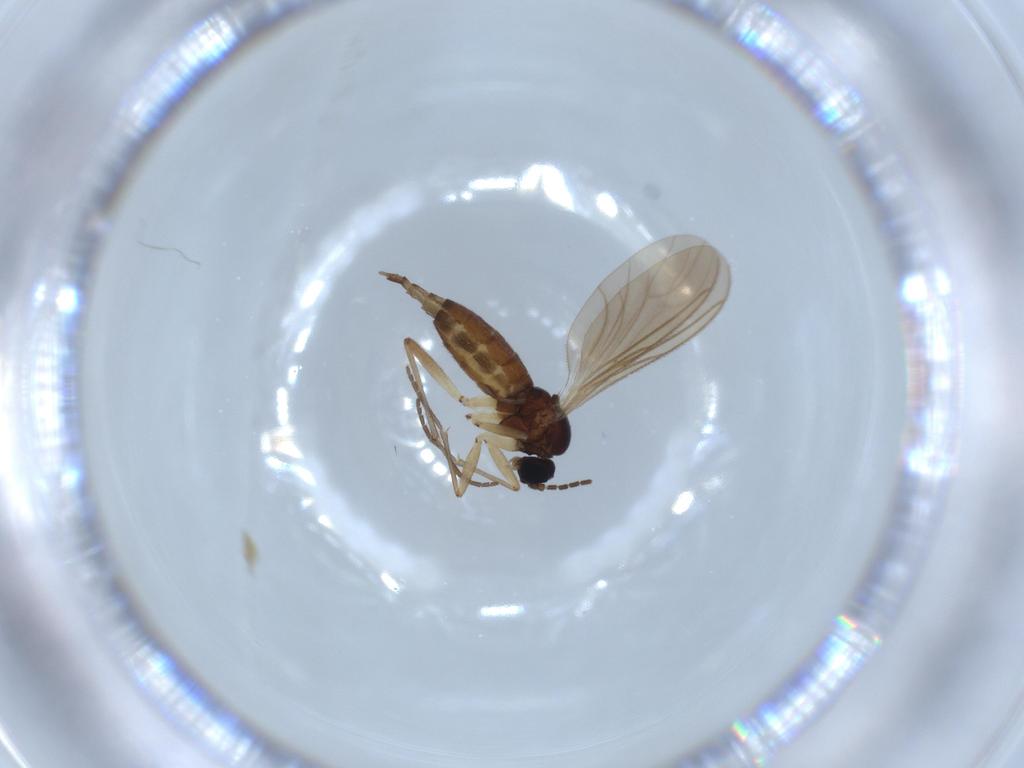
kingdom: Animalia
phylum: Arthropoda
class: Insecta
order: Diptera
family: Sciaridae
